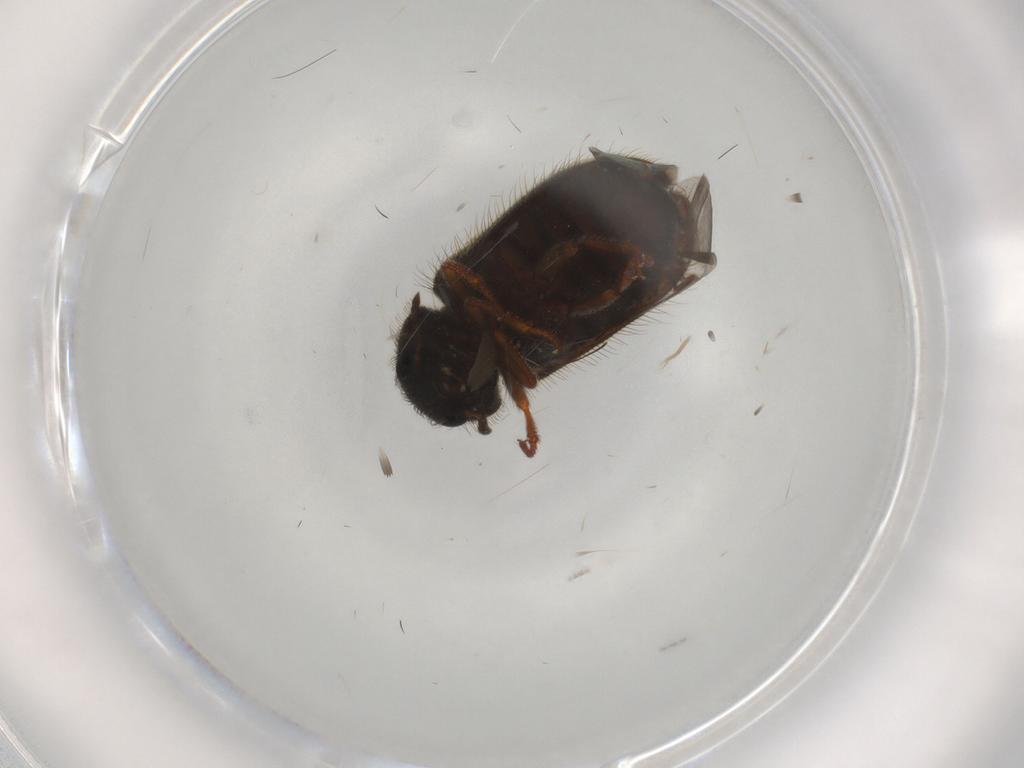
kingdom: Animalia
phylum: Arthropoda
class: Insecta
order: Coleoptera
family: Melyridae
